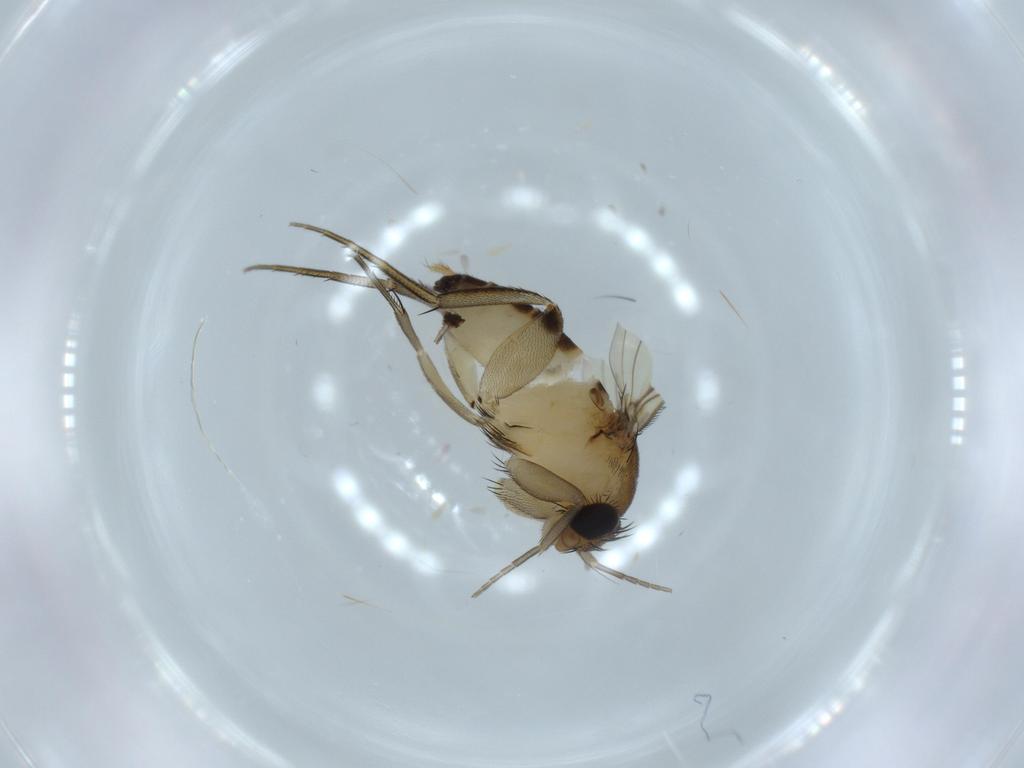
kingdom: Animalia
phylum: Arthropoda
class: Insecta
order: Diptera
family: Phoridae
